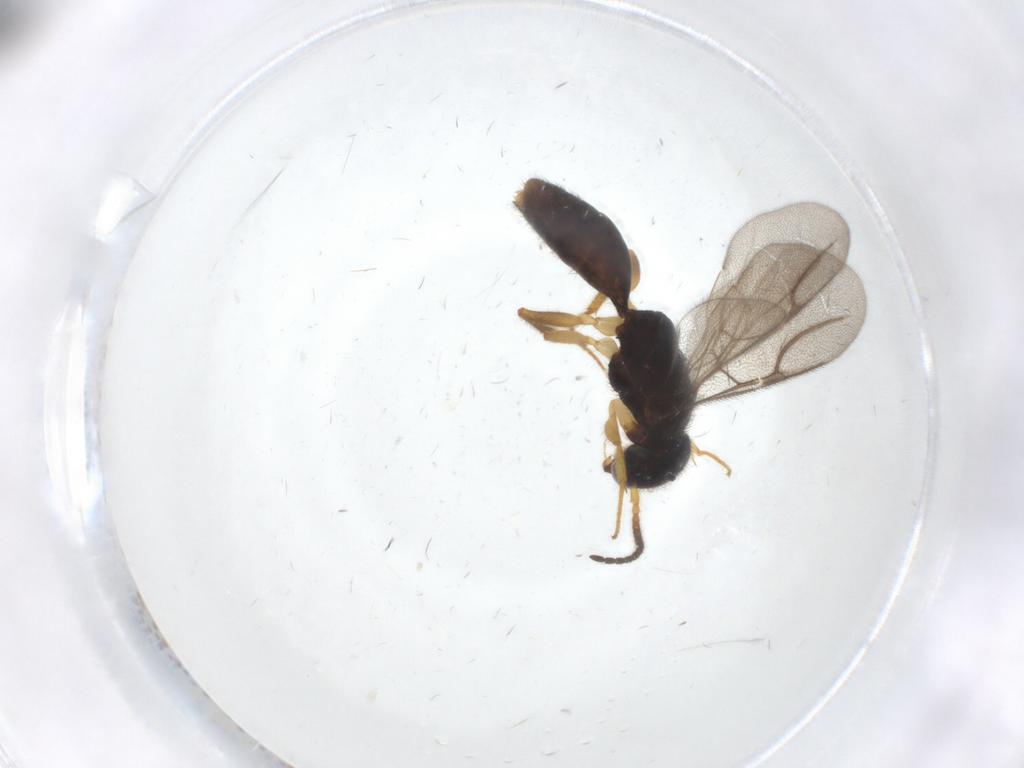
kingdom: Animalia
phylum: Arthropoda
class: Insecta
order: Hymenoptera
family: Bethylidae
